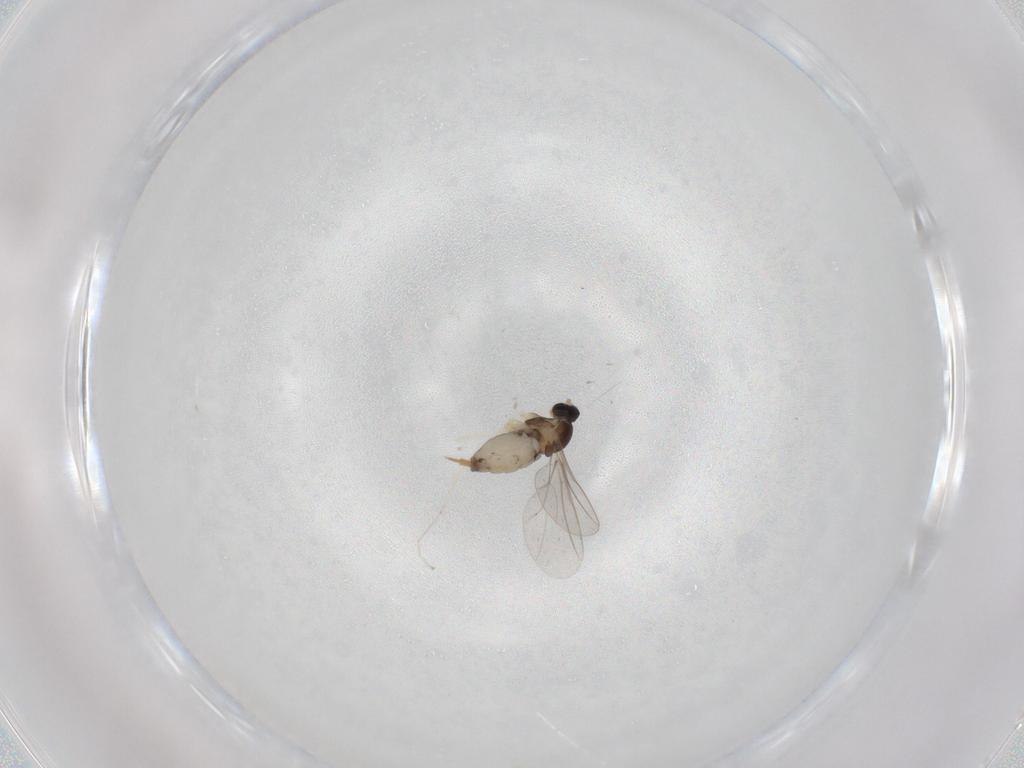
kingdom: Animalia
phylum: Arthropoda
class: Insecta
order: Diptera
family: Cecidomyiidae
